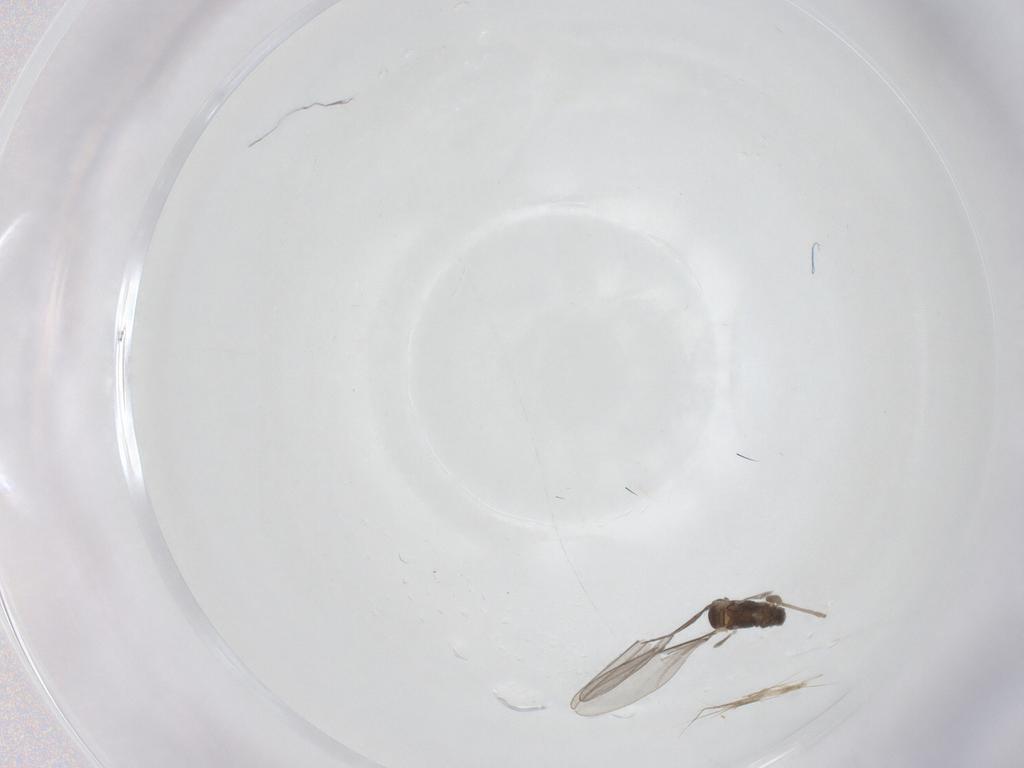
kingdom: Animalia
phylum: Arthropoda
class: Insecta
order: Diptera
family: Cecidomyiidae
